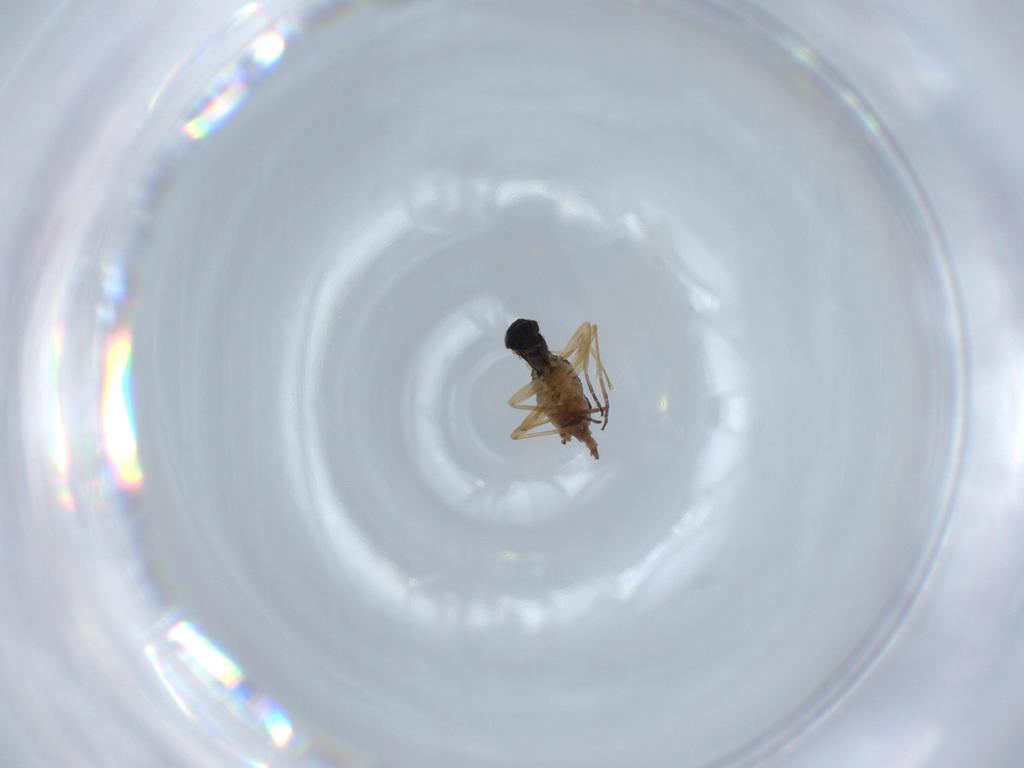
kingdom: Animalia
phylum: Arthropoda
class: Insecta
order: Diptera
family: Sciaridae
